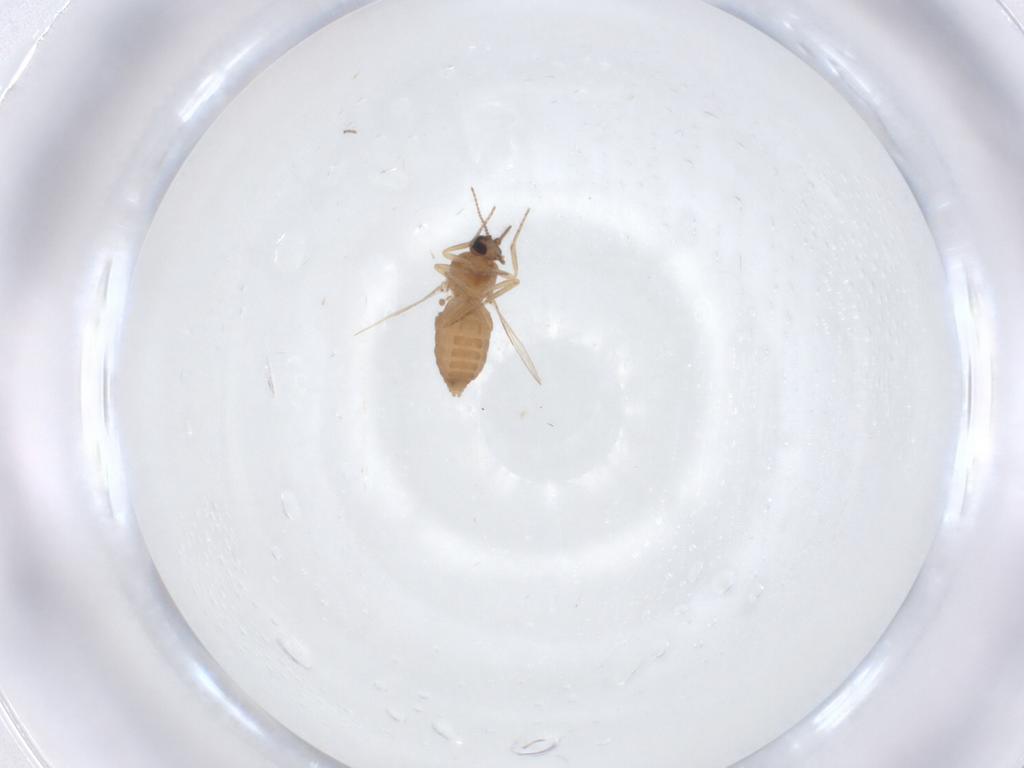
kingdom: Animalia
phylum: Arthropoda
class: Insecta
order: Diptera
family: Ceratopogonidae
